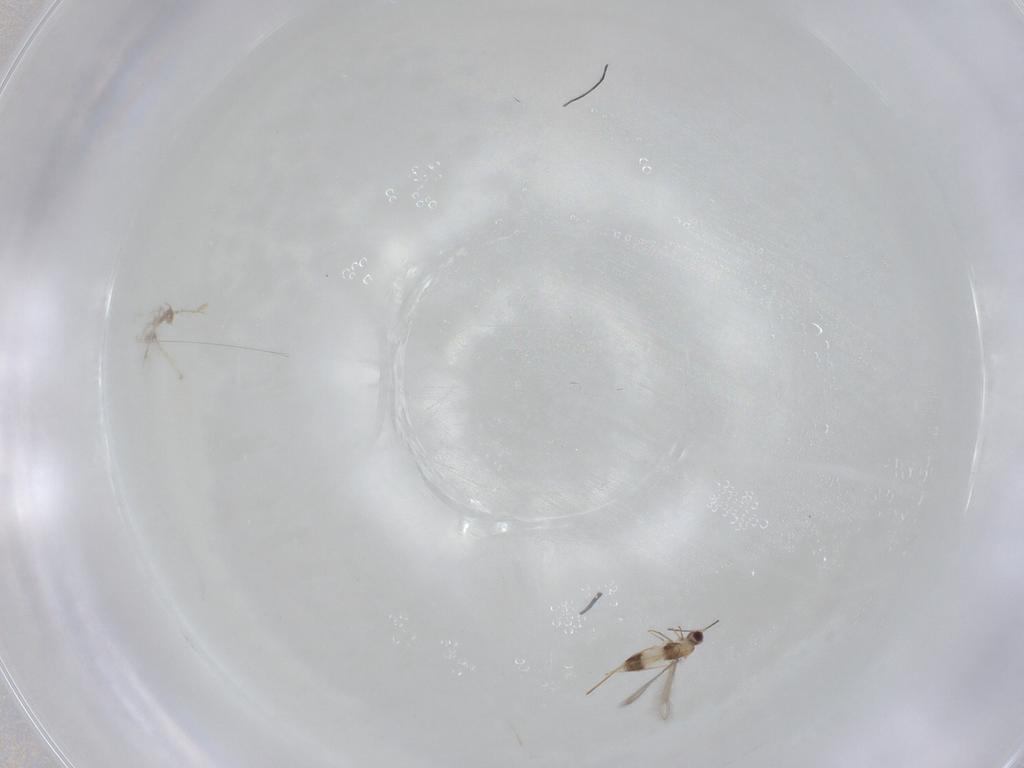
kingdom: Animalia
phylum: Arthropoda
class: Insecta
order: Hymenoptera
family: Mymaridae
